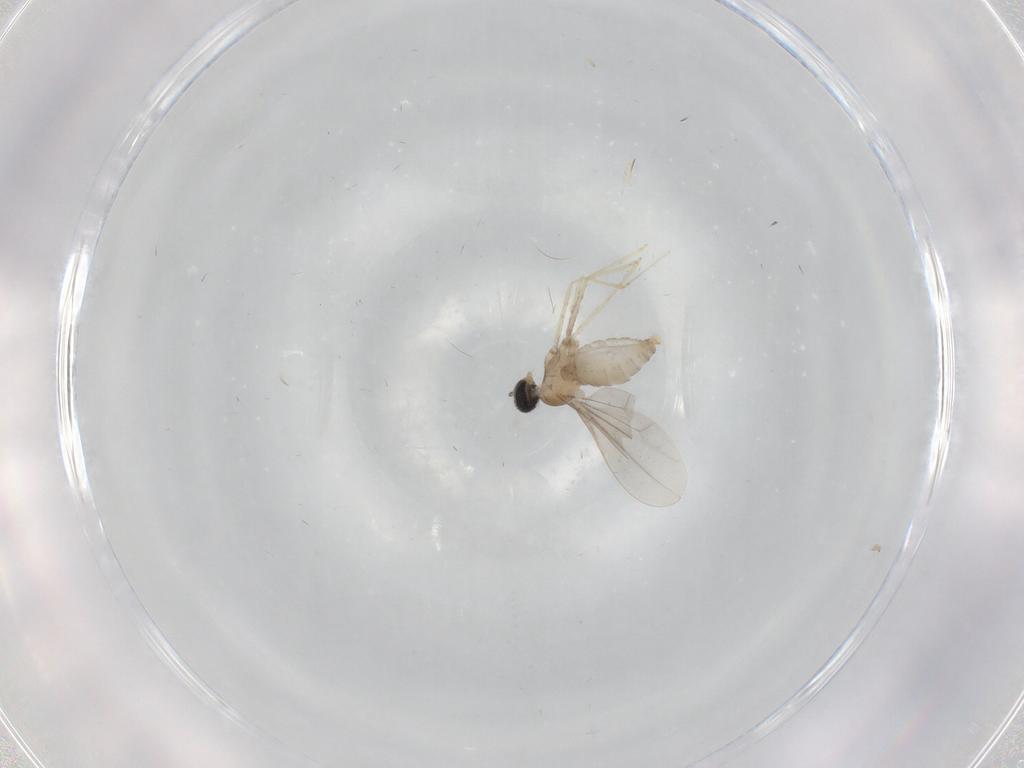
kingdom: Animalia
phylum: Arthropoda
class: Insecta
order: Diptera
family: Cecidomyiidae
